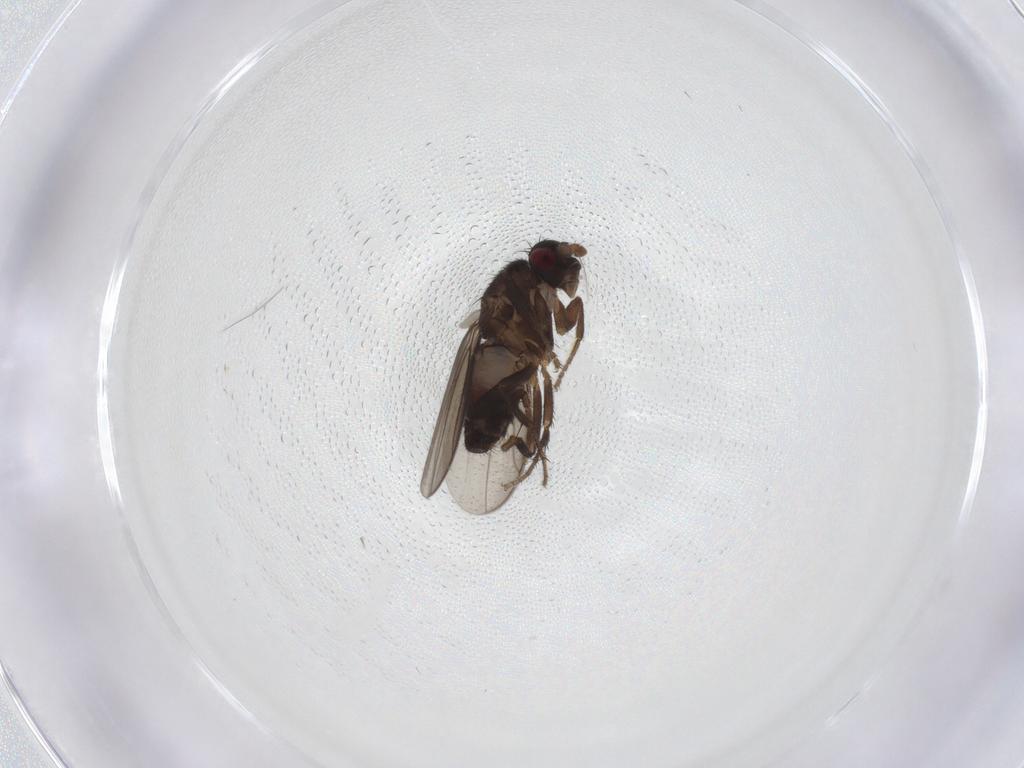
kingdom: Animalia
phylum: Arthropoda
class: Insecta
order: Diptera
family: Sphaeroceridae
